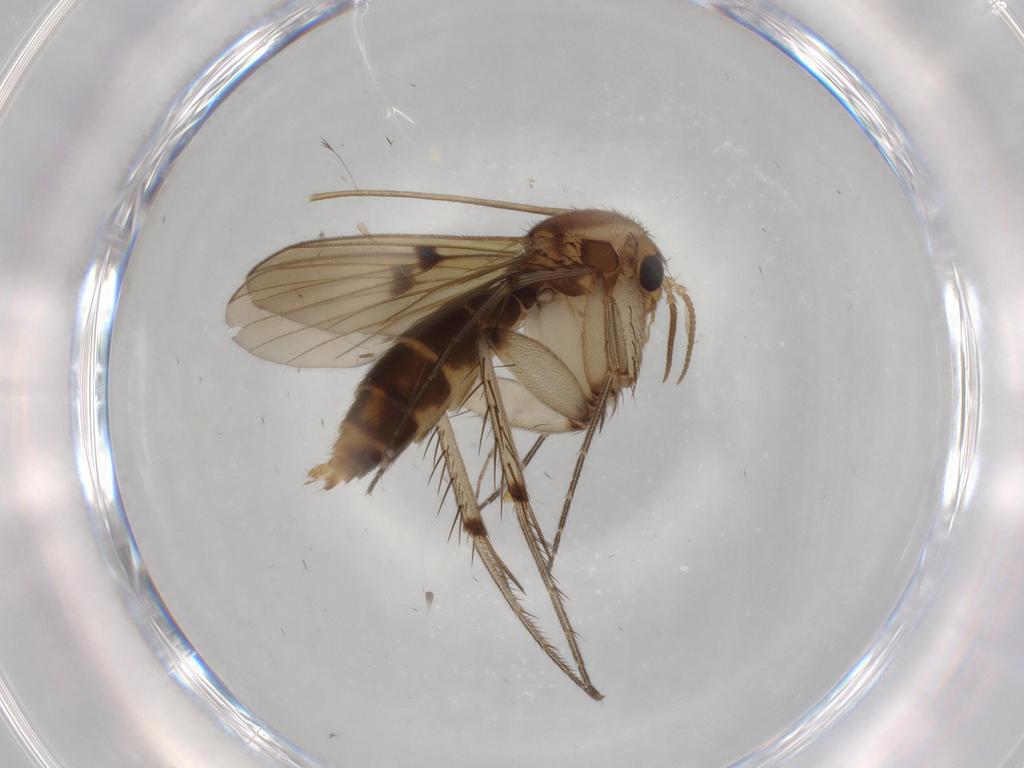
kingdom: Animalia
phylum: Arthropoda
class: Insecta
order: Diptera
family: Mycetophilidae
